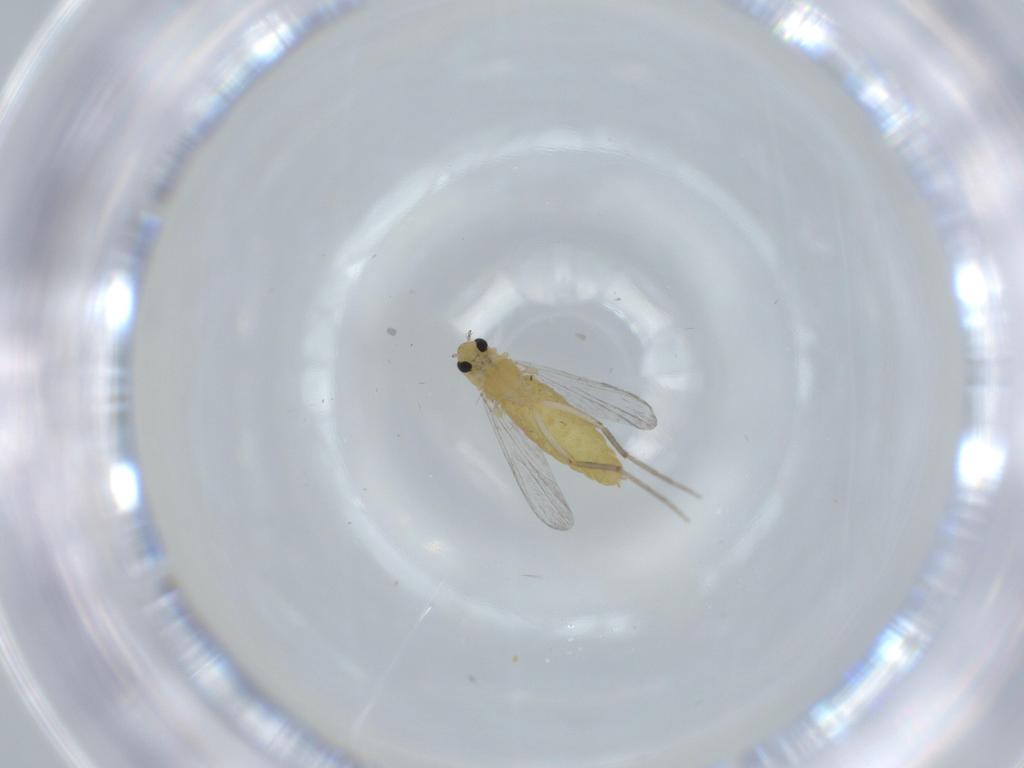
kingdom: Animalia
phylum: Arthropoda
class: Insecta
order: Diptera
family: Chironomidae
